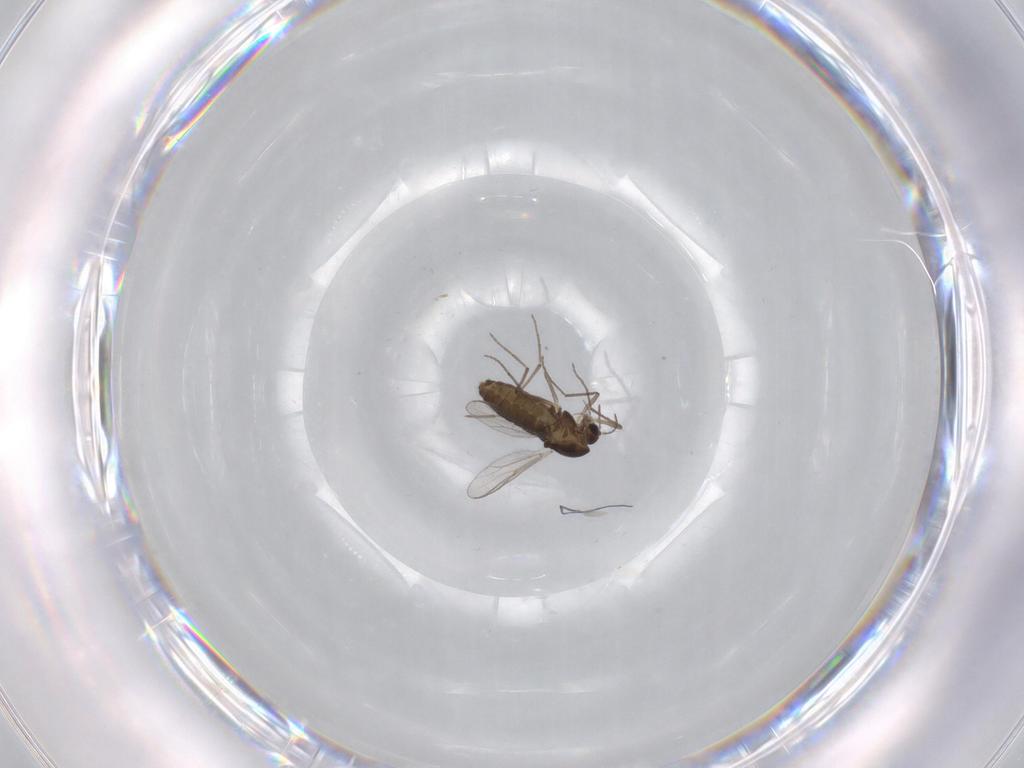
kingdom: Animalia
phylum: Arthropoda
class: Insecta
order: Diptera
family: Chironomidae
